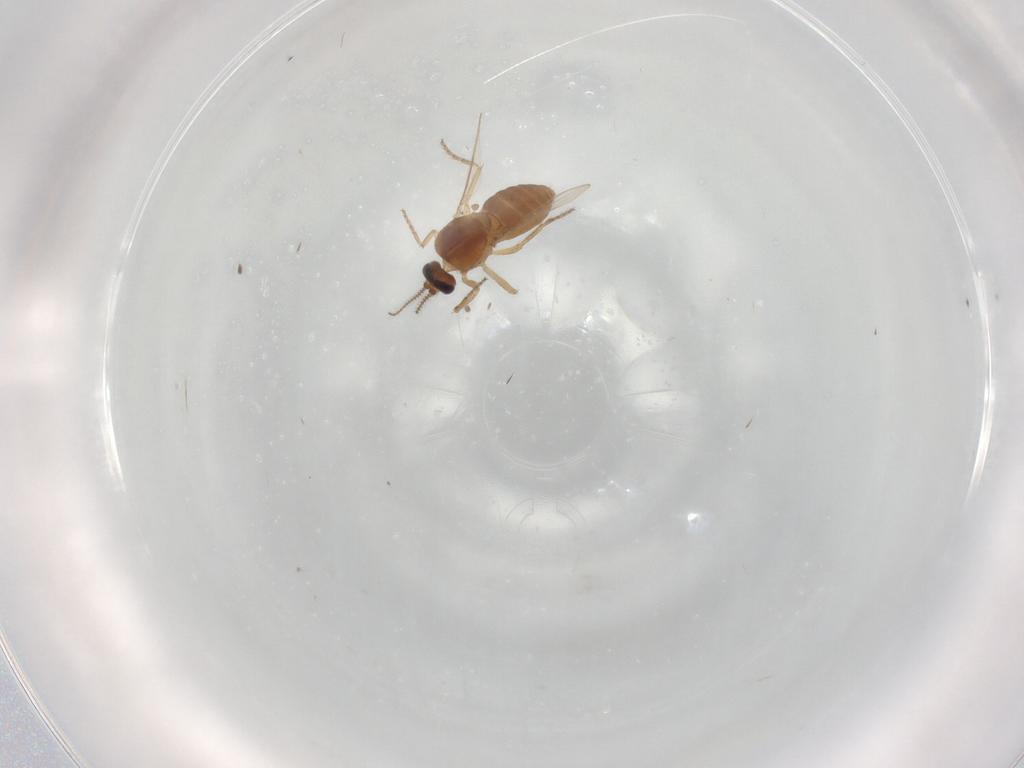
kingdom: Animalia
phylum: Arthropoda
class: Insecta
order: Diptera
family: Ceratopogonidae
